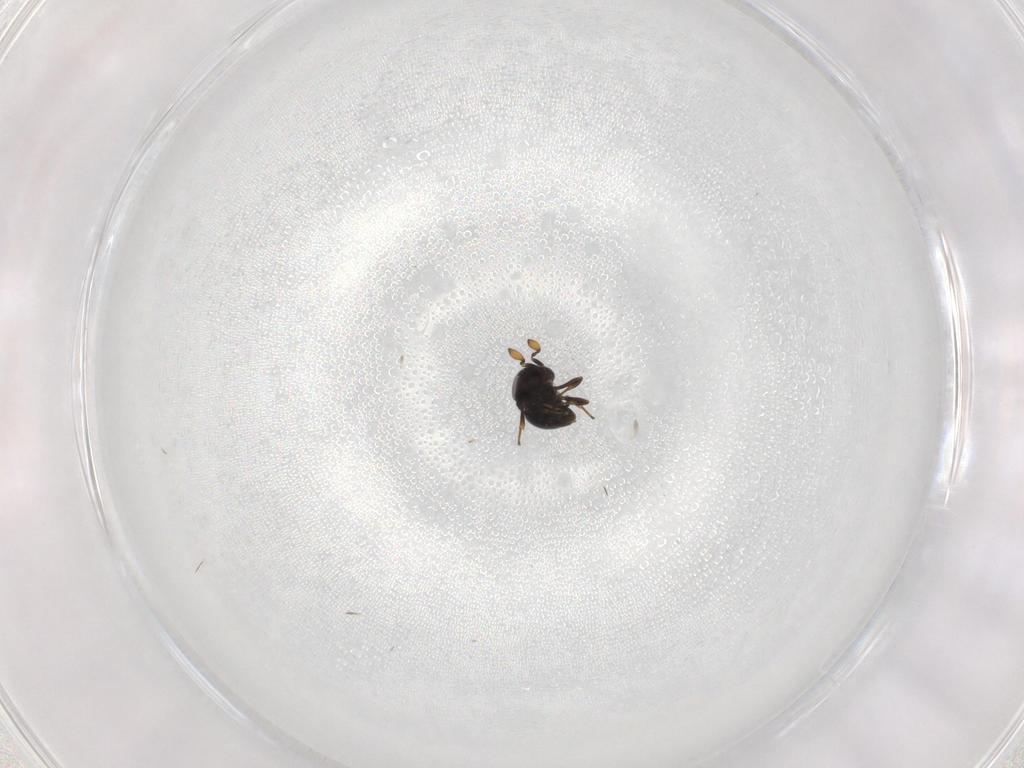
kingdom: Animalia
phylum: Arthropoda
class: Insecta
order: Hymenoptera
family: Scelionidae
